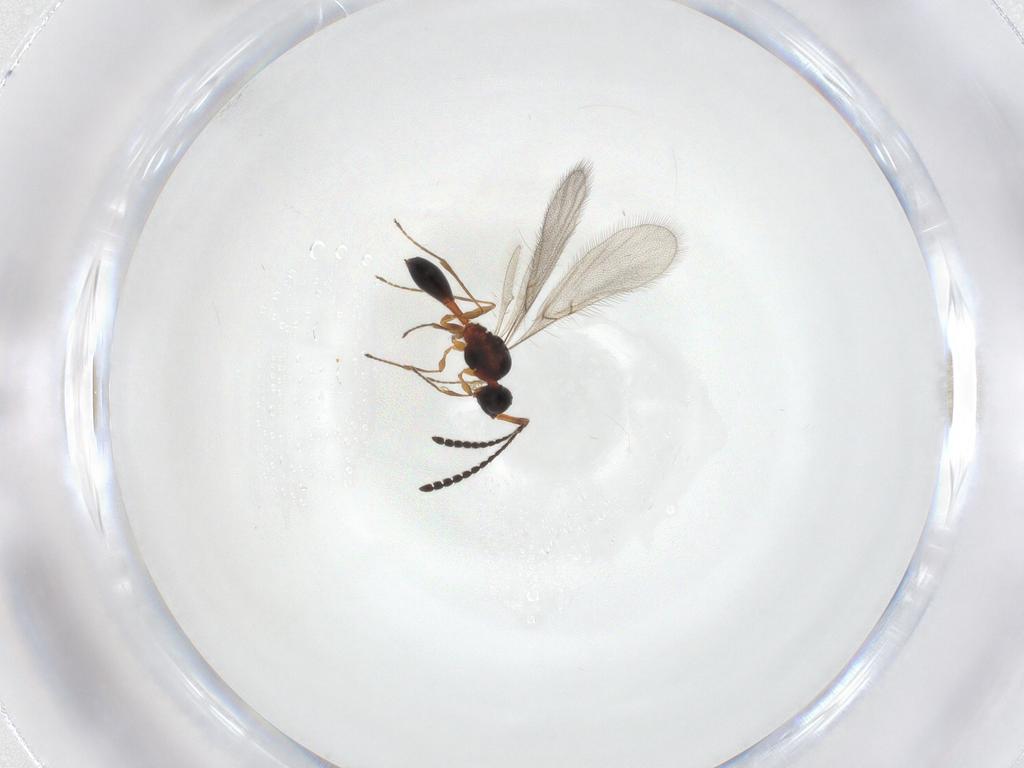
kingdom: Animalia
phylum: Arthropoda
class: Insecta
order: Hymenoptera
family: Diapriidae
